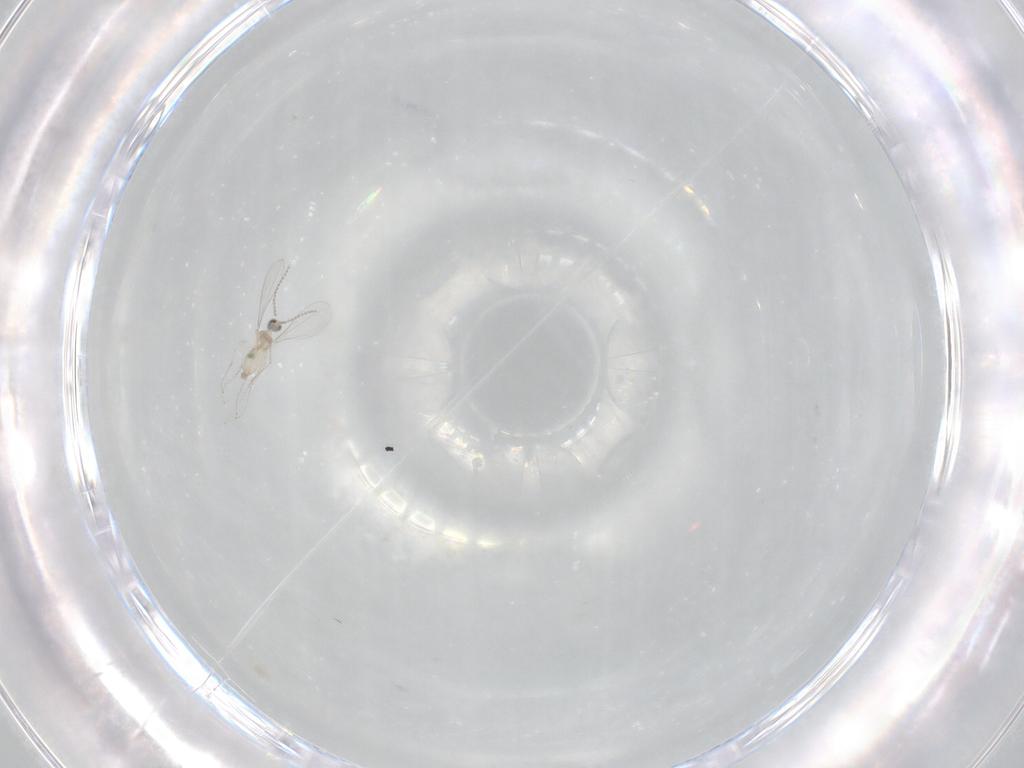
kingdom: Animalia
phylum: Arthropoda
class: Insecta
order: Diptera
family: Cecidomyiidae
